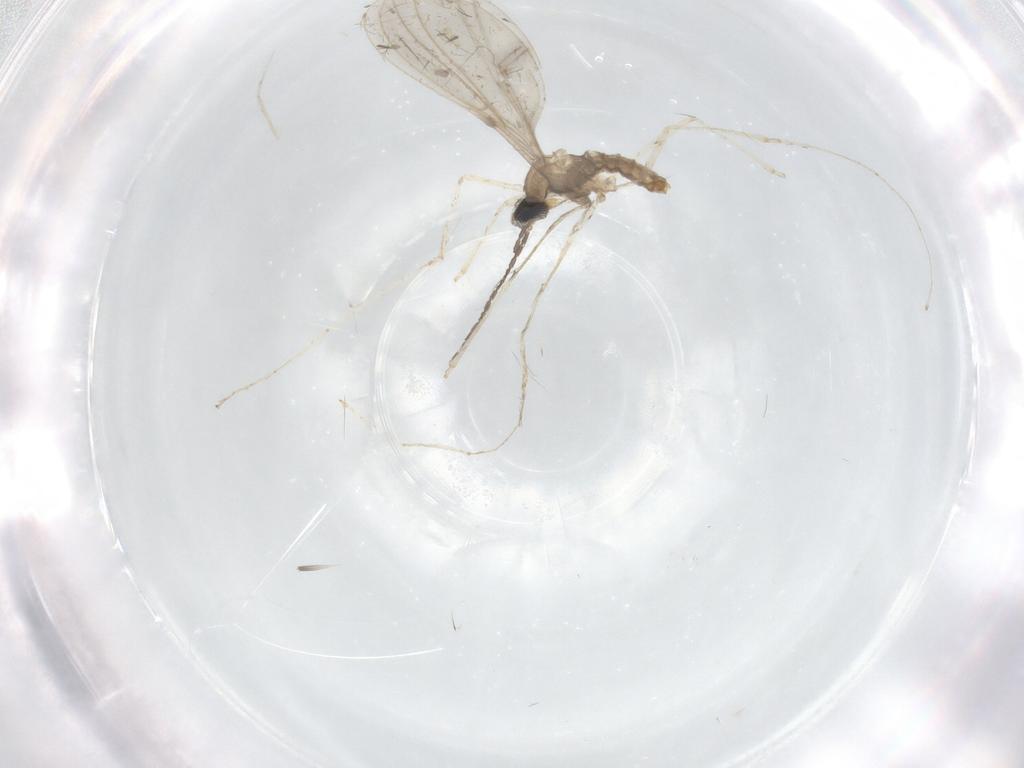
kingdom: Animalia
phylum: Arthropoda
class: Insecta
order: Diptera
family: Cecidomyiidae
